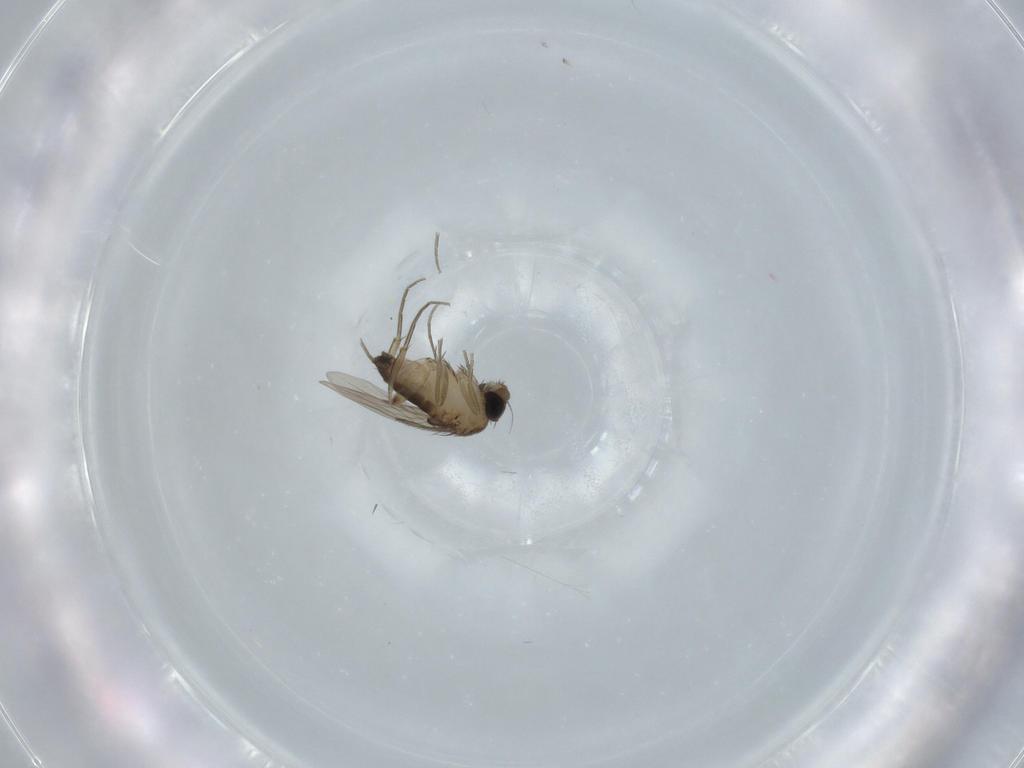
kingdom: Animalia
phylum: Arthropoda
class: Insecta
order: Diptera
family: Phoridae
